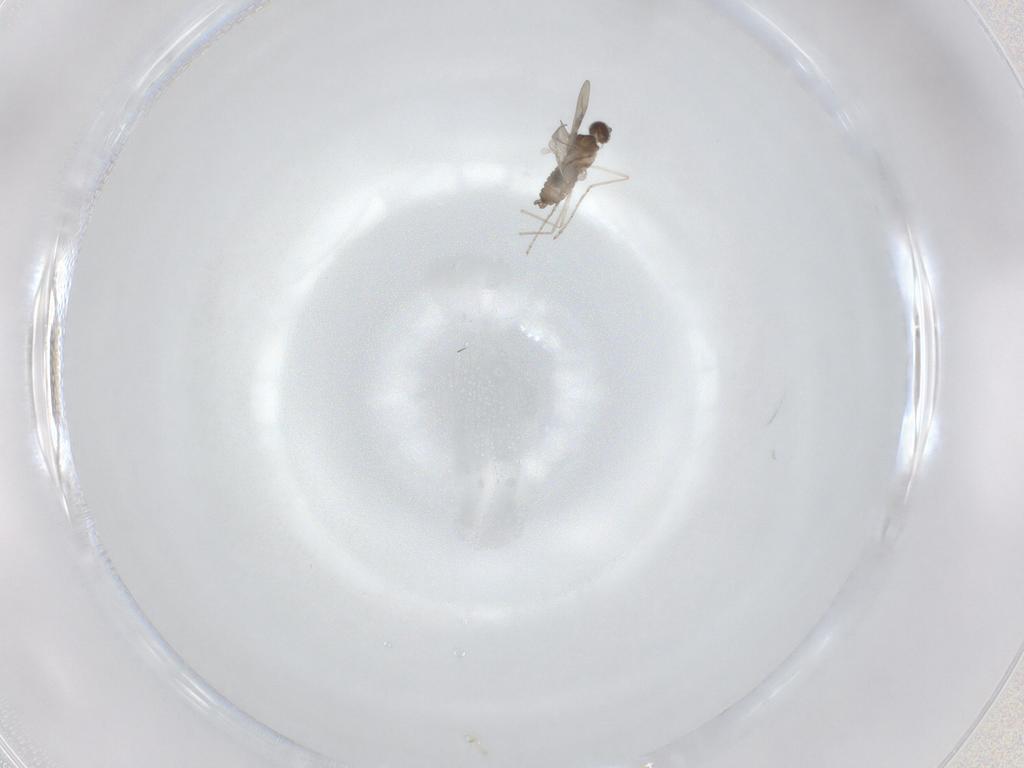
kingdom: Animalia
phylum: Arthropoda
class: Insecta
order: Diptera
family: Cecidomyiidae
